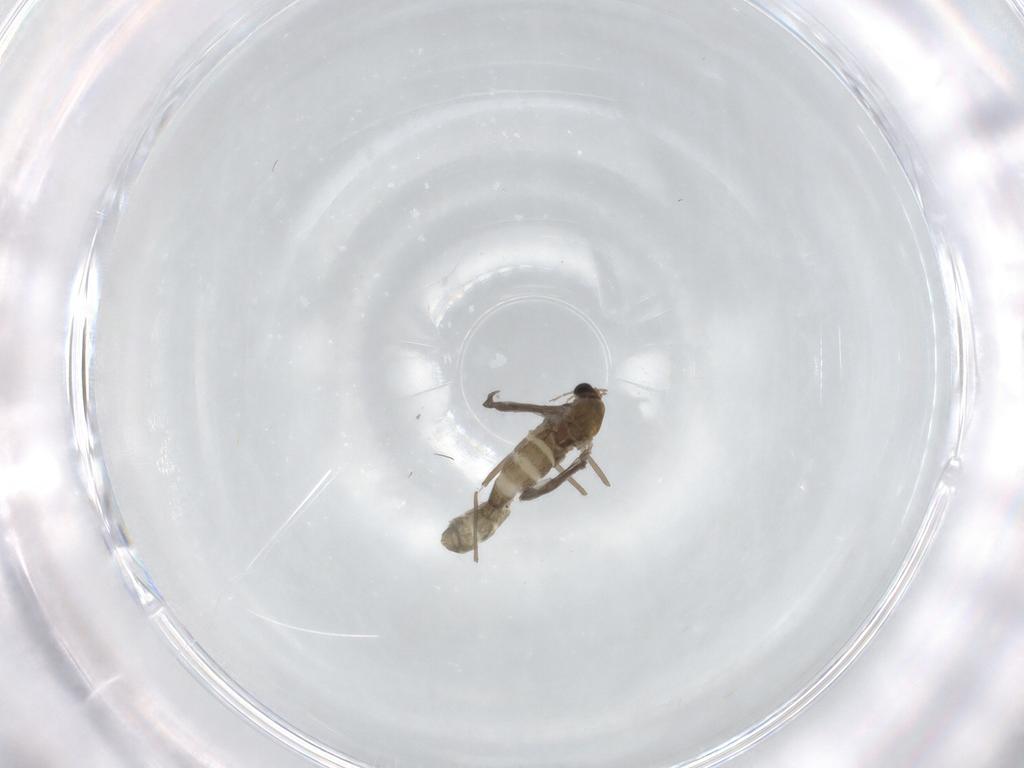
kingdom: Animalia
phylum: Arthropoda
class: Insecta
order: Diptera
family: Chironomidae
